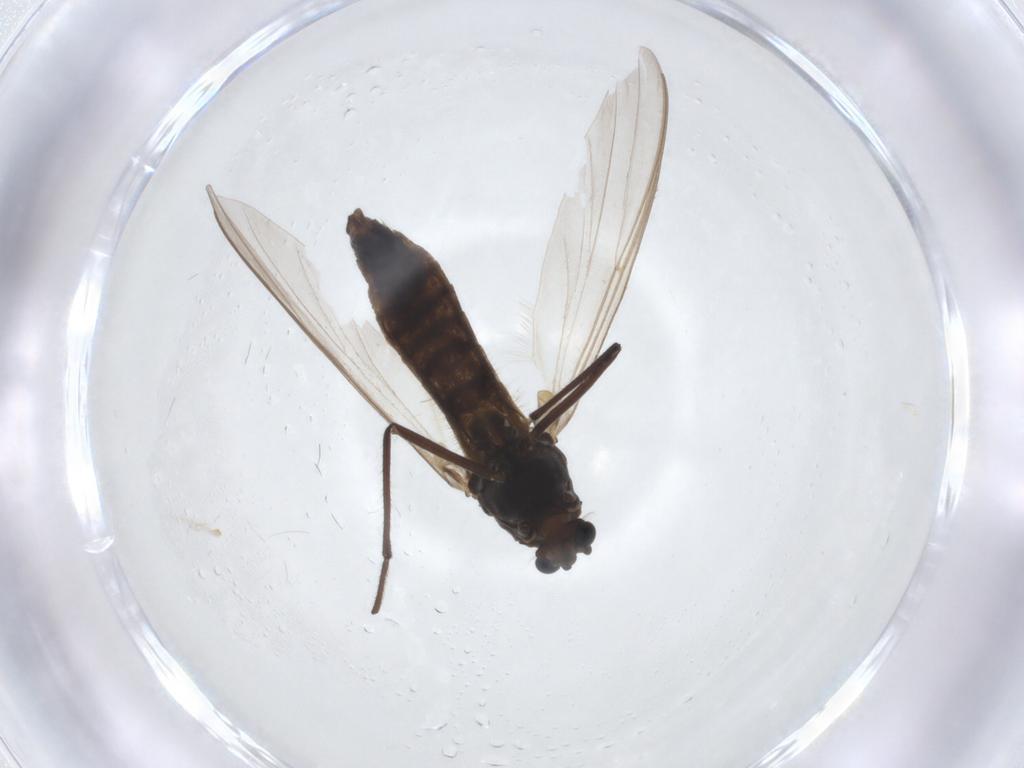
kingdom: Animalia
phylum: Arthropoda
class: Insecta
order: Diptera
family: Chironomidae
